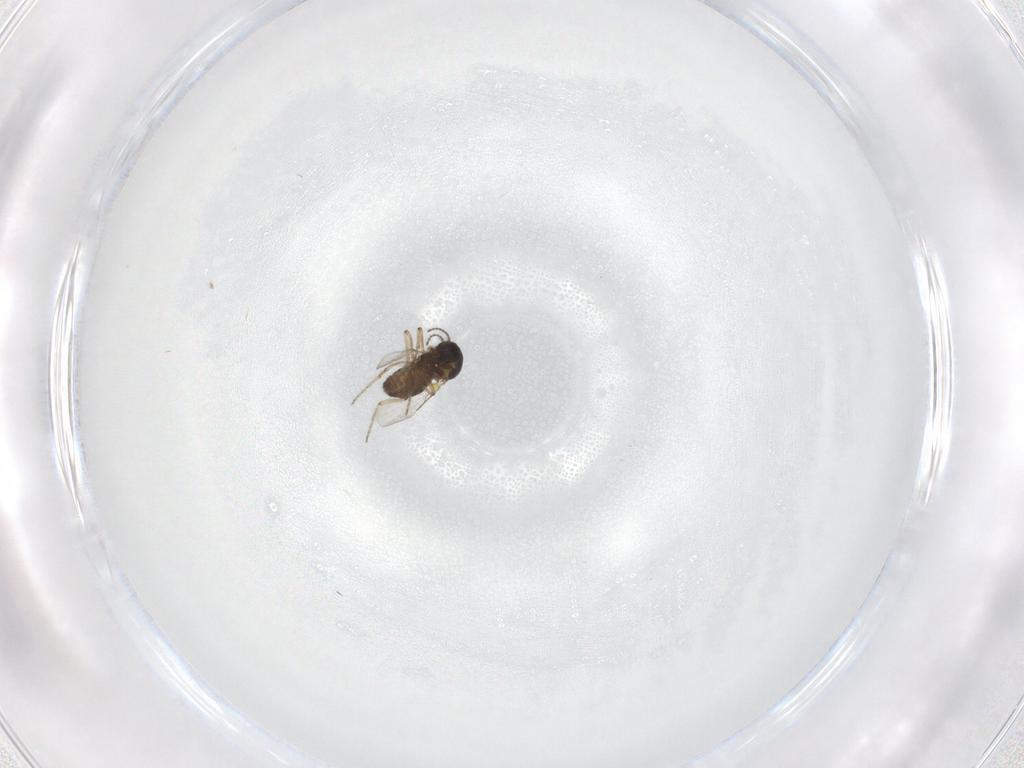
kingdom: Animalia
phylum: Arthropoda
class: Insecta
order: Diptera
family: Ceratopogonidae
